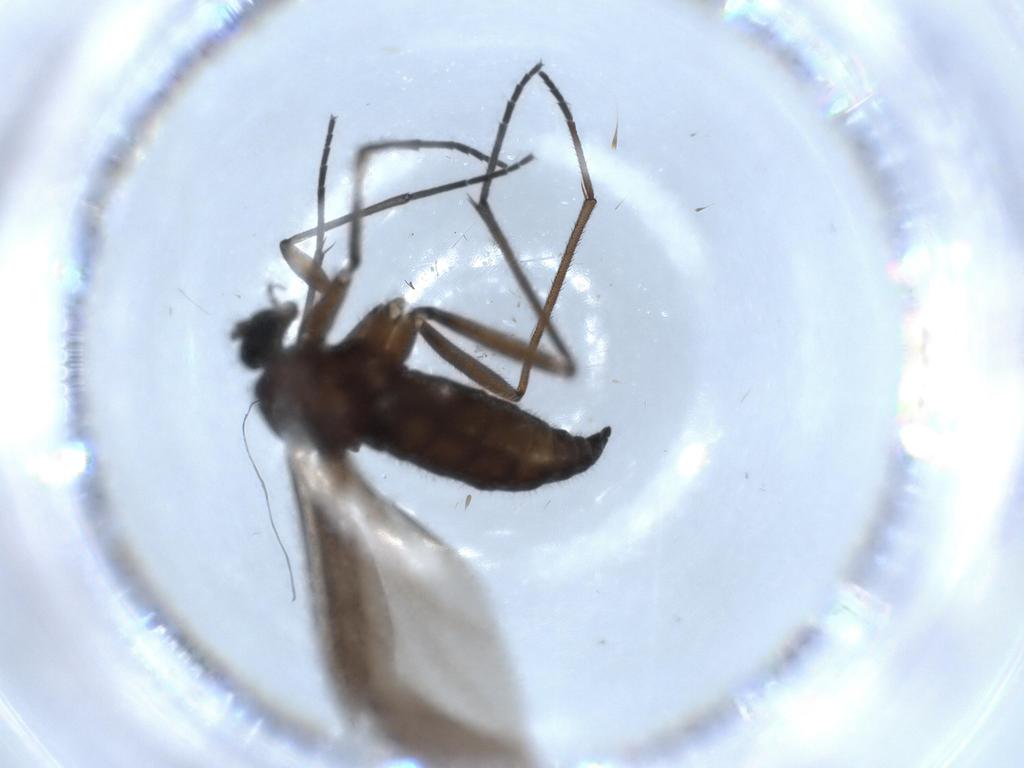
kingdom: Animalia
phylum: Arthropoda
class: Insecta
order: Diptera
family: Sciaridae
